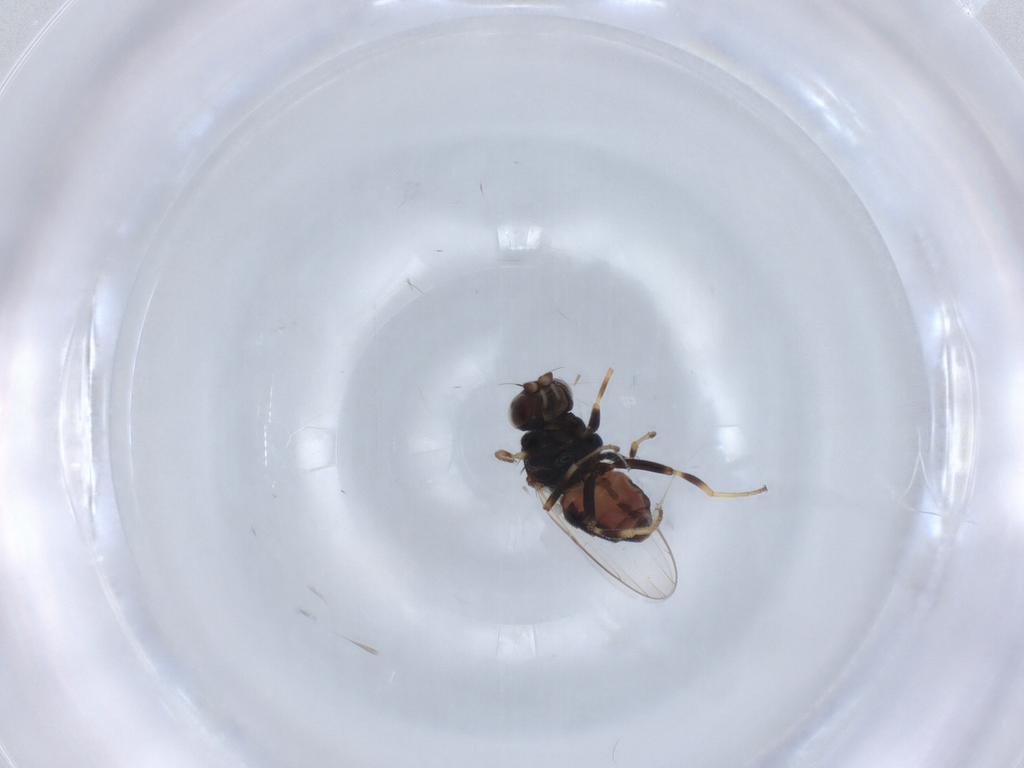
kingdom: Animalia
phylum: Arthropoda
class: Insecta
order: Diptera
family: Chloropidae
